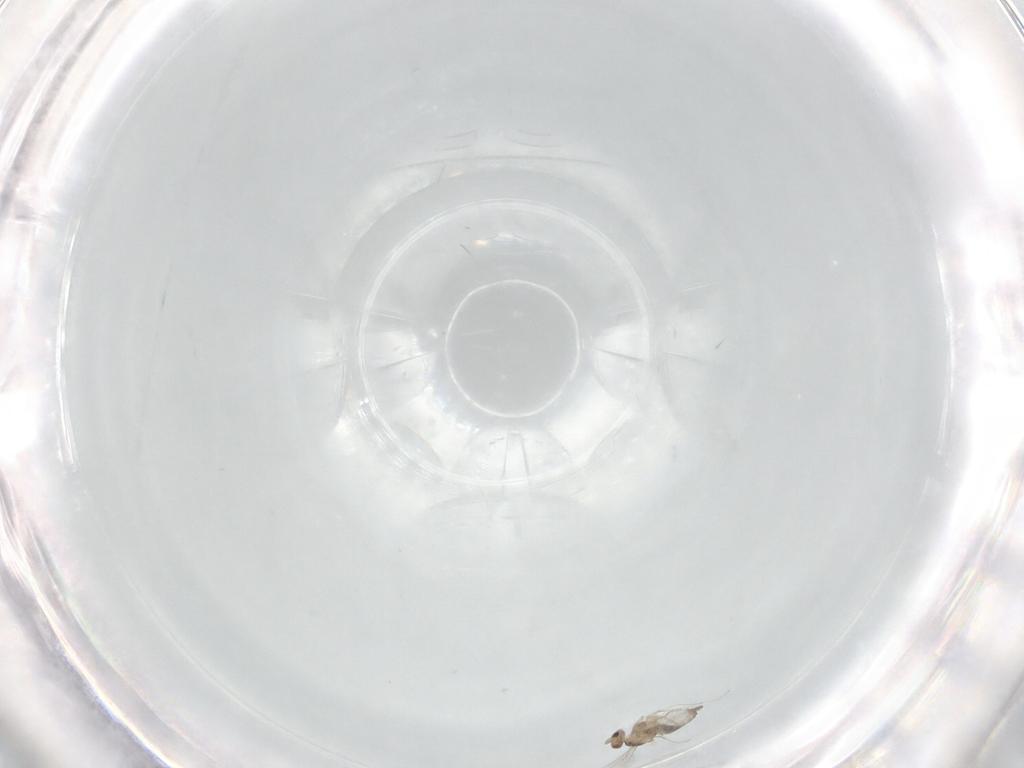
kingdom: Animalia
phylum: Arthropoda
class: Insecta
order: Diptera
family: Cecidomyiidae
